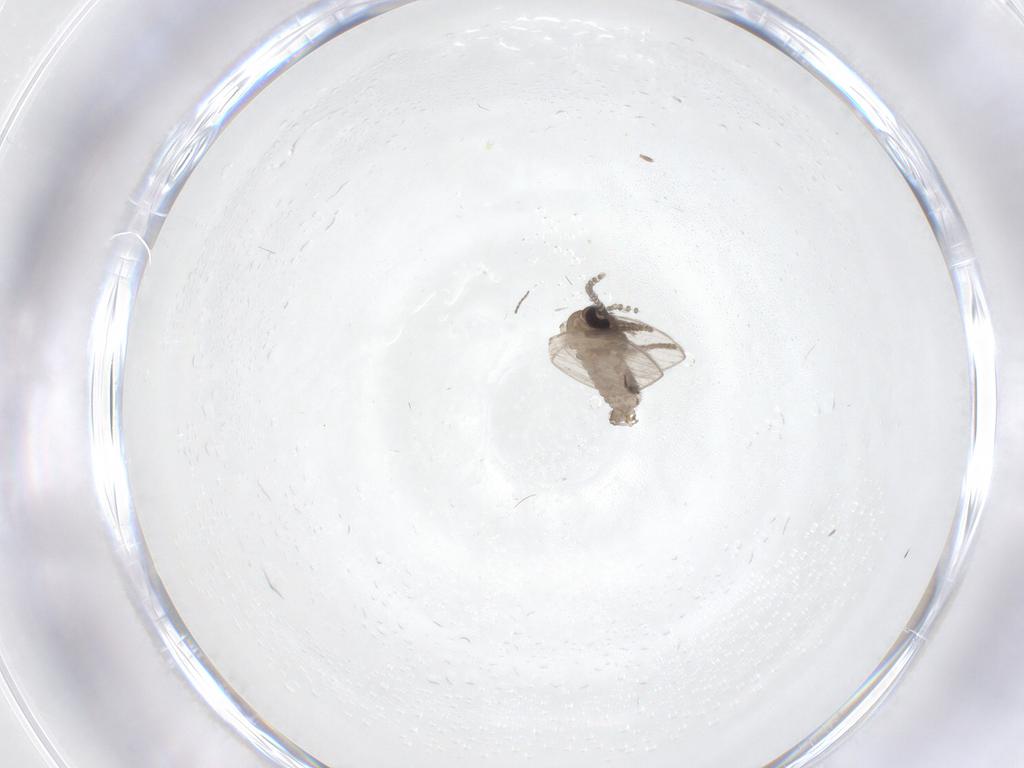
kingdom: Animalia
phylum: Arthropoda
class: Insecta
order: Diptera
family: Psychodidae
